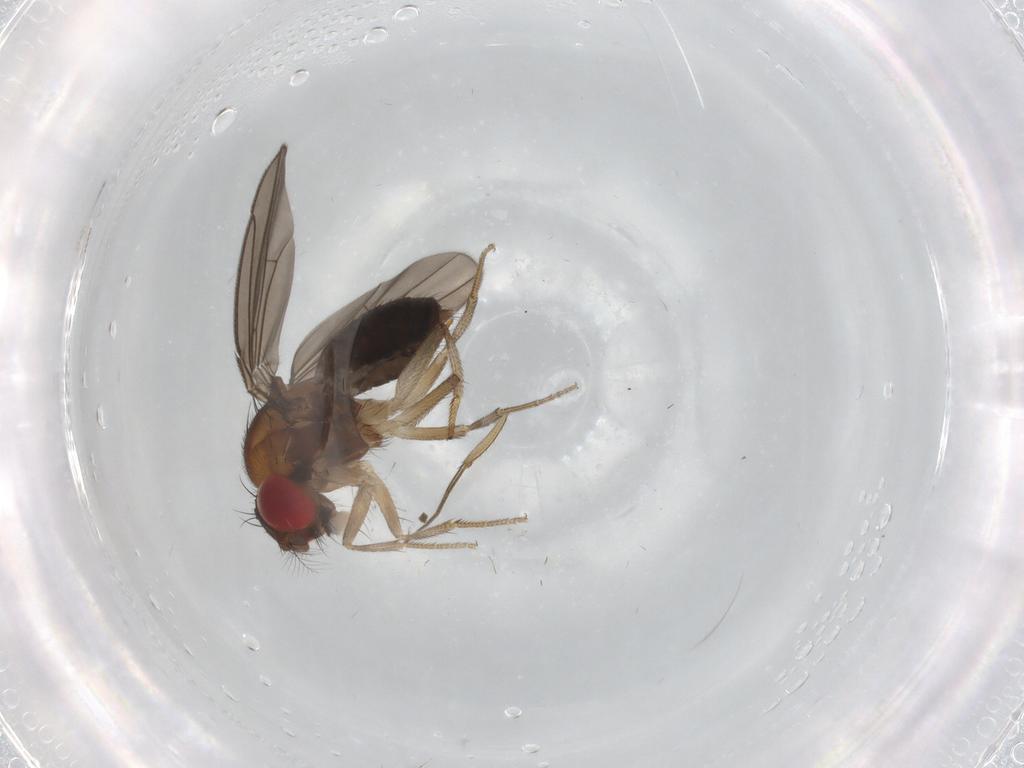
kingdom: Animalia
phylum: Arthropoda
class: Insecta
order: Diptera
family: Drosophilidae
